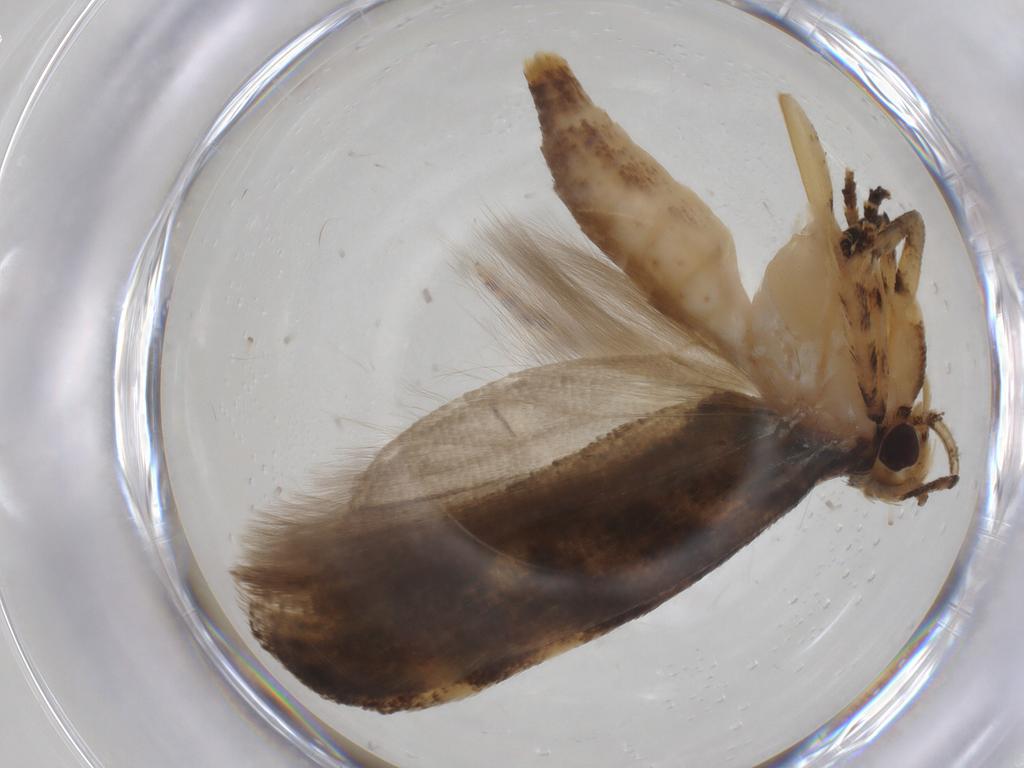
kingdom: Animalia
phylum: Arthropoda
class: Insecta
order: Lepidoptera
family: Gelechiidae
